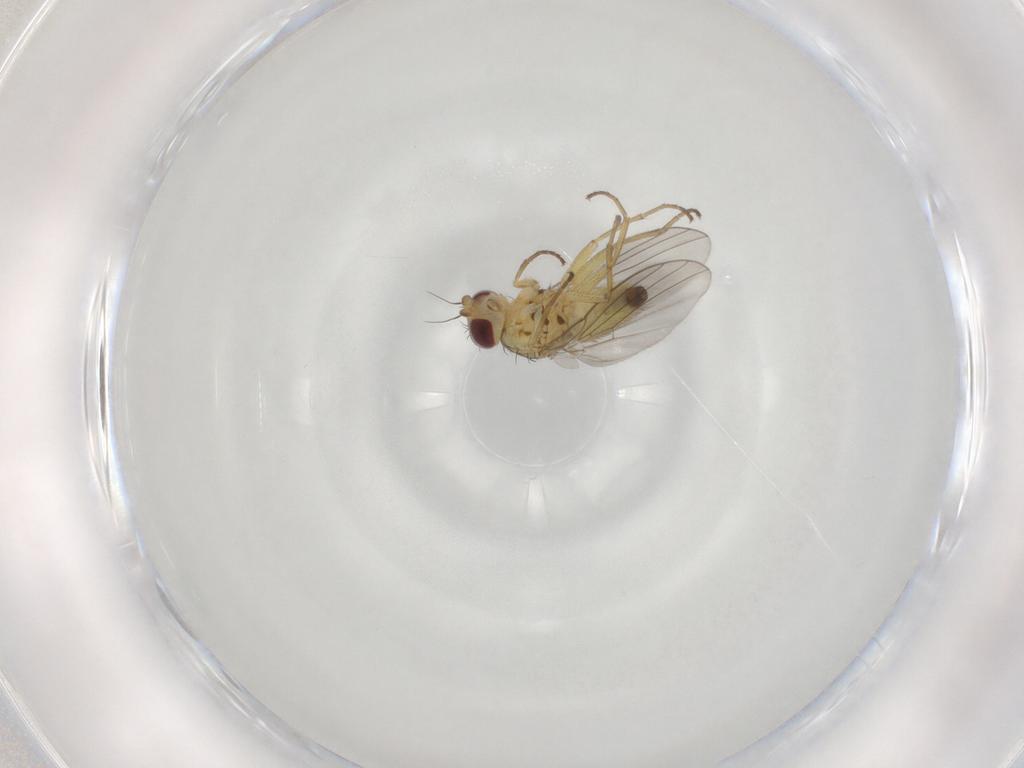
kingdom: Animalia
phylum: Arthropoda
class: Insecta
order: Diptera
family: Agromyzidae
